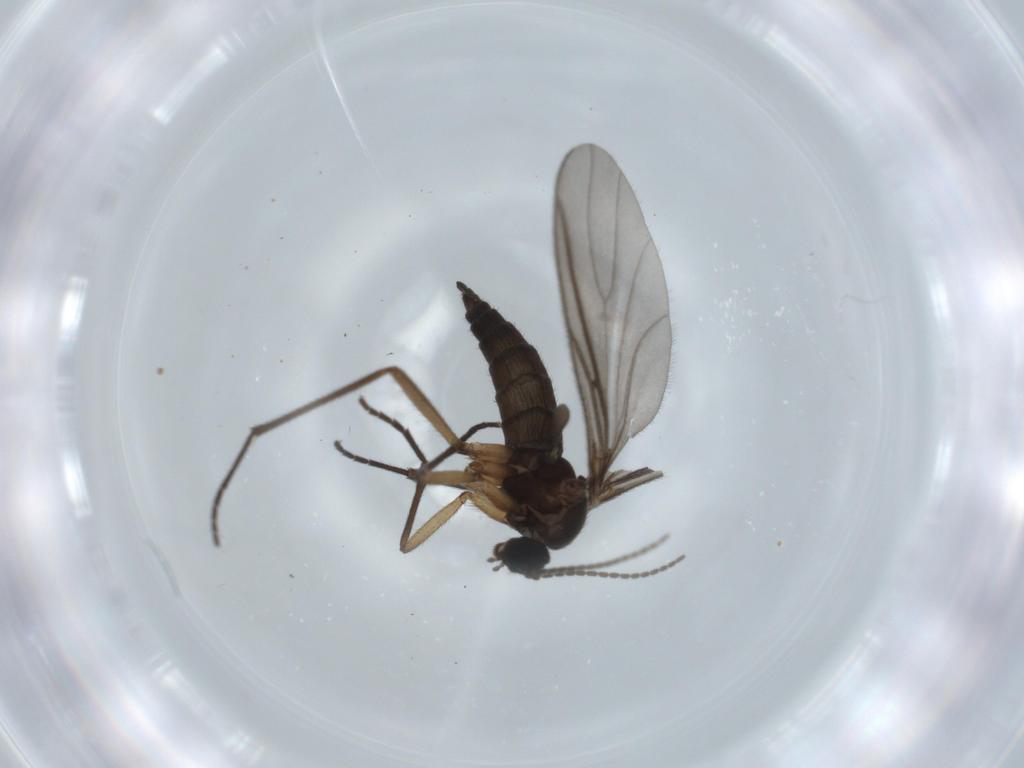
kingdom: Animalia
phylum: Arthropoda
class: Insecta
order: Diptera
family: Sciaridae
